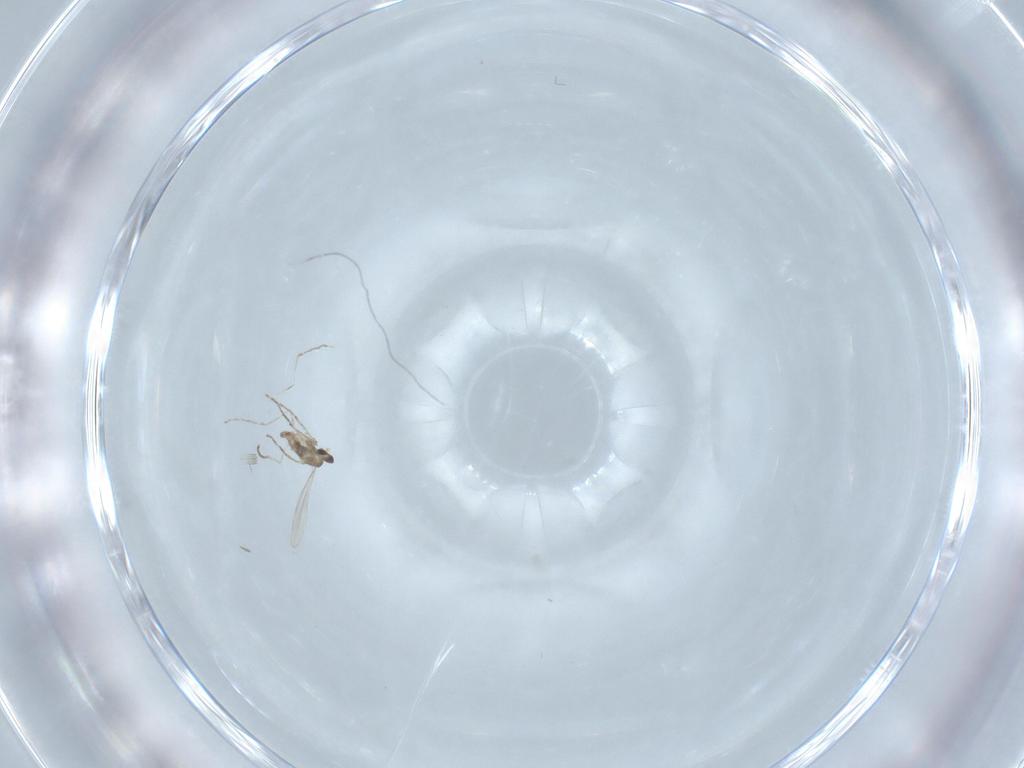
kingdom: Animalia
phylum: Arthropoda
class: Insecta
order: Diptera
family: Cecidomyiidae
